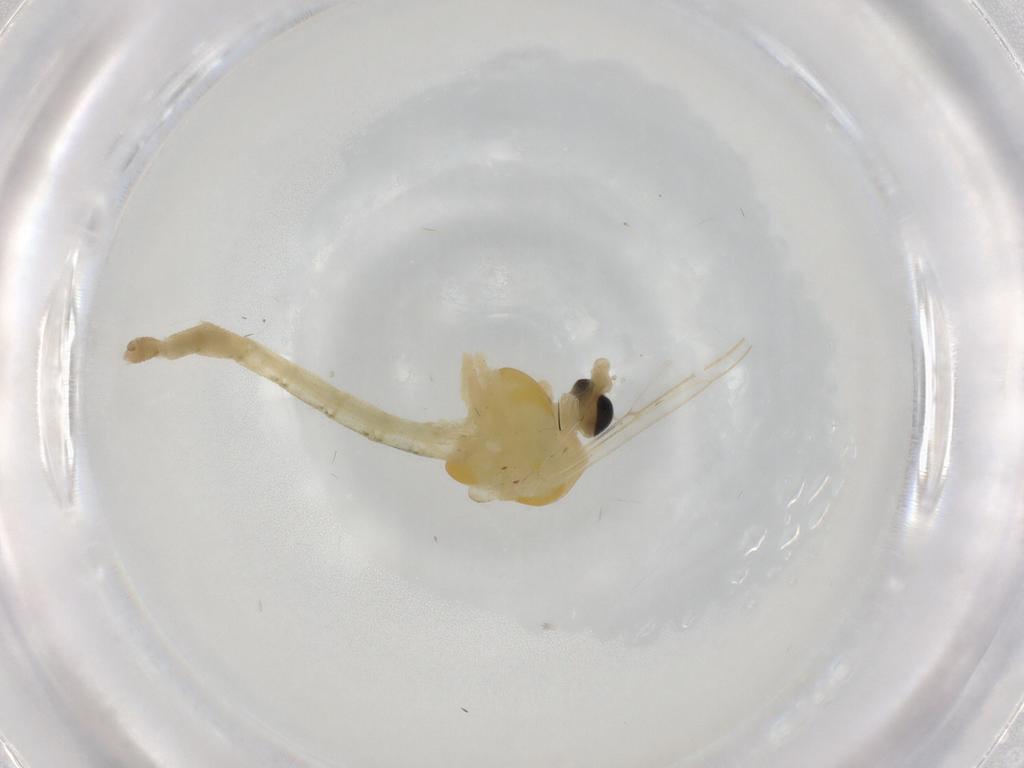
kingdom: Animalia
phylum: Arthropoda
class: Insecta
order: Diptera
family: Chironomidae
